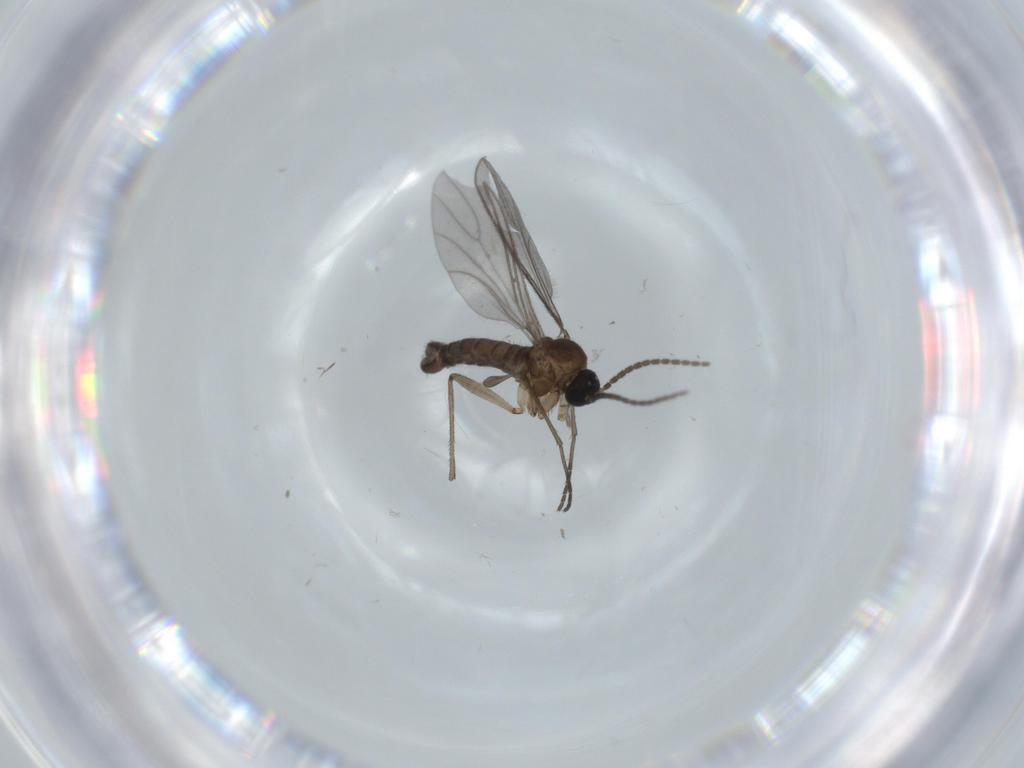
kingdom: Animalia
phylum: Arthropoda
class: Insecta
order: Diptera
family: Sciaridae
